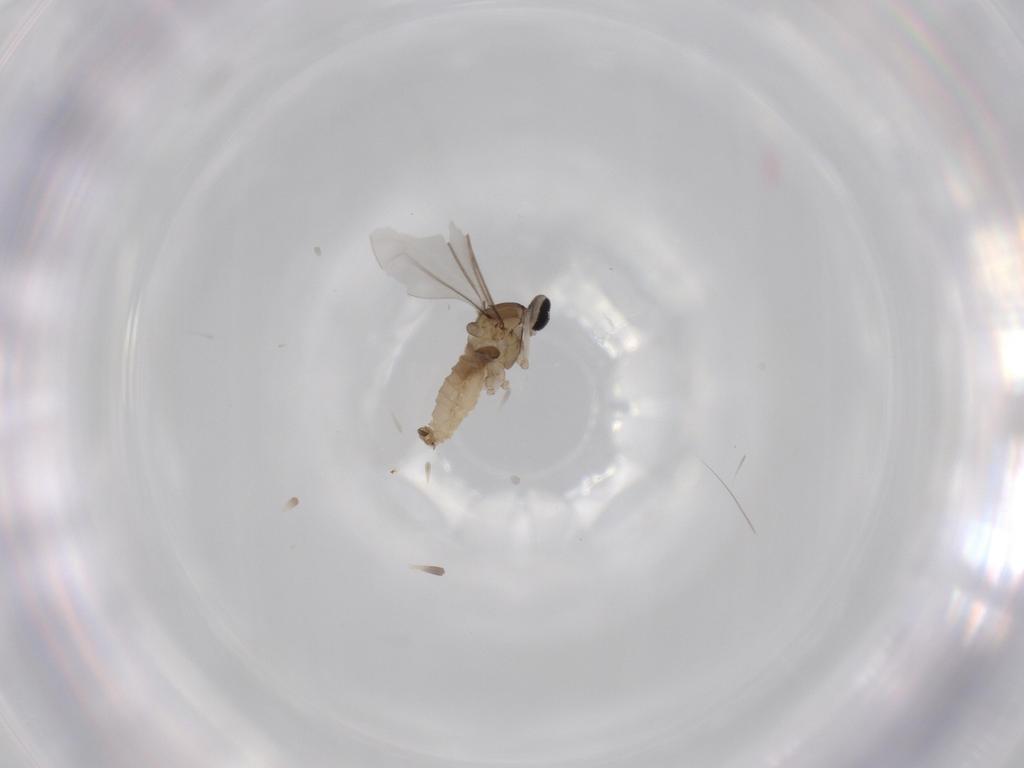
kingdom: Animalia
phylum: Arthropoda
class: Insecta
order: Diptera
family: Cecidomyiidae
